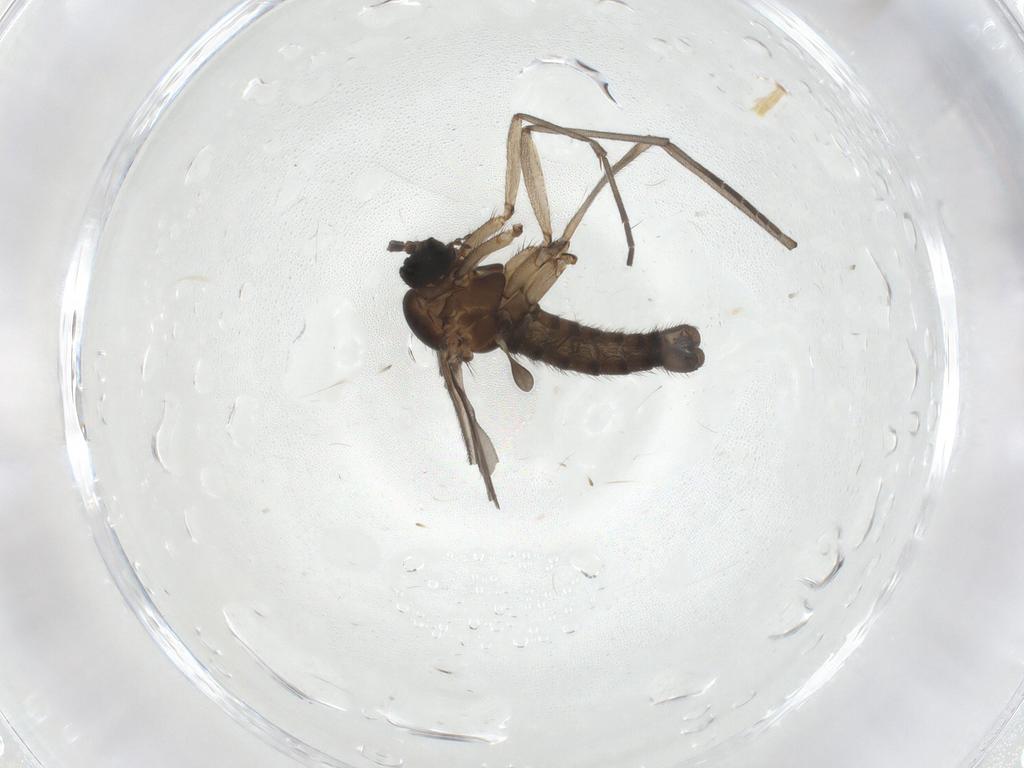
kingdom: Animalia
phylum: Arthropoda
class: Insecta
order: Diptera
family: Sciaridae
